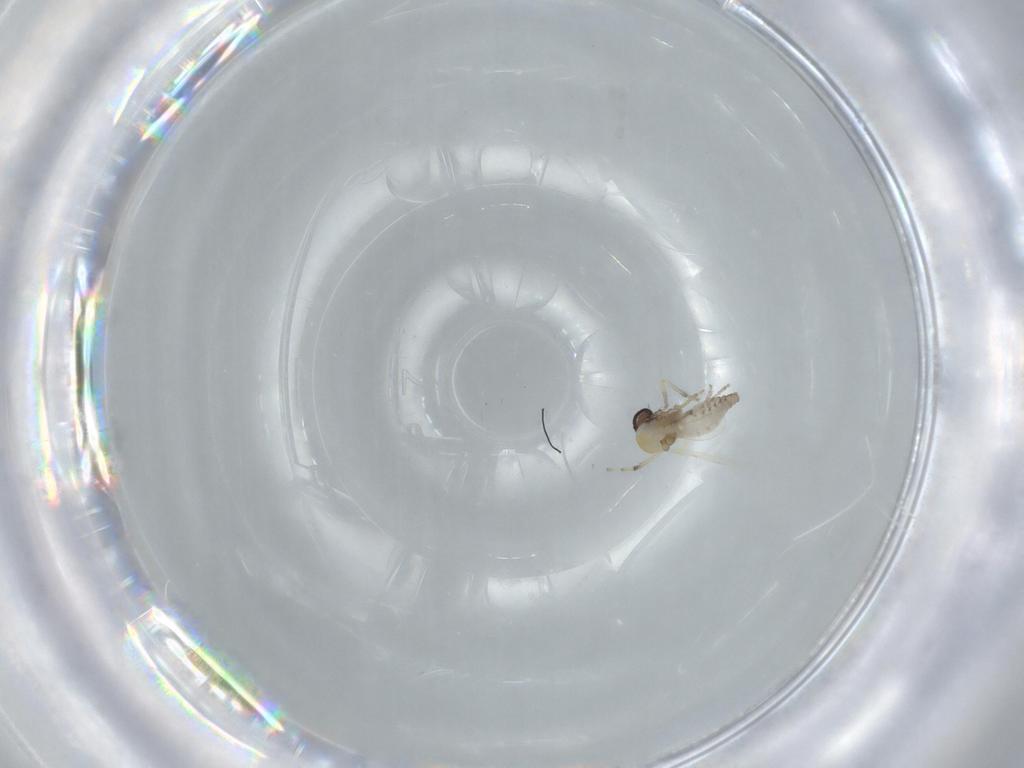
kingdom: Animalia
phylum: Arthropoda
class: Insecta
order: Diptera
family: Ceratopogonidae
